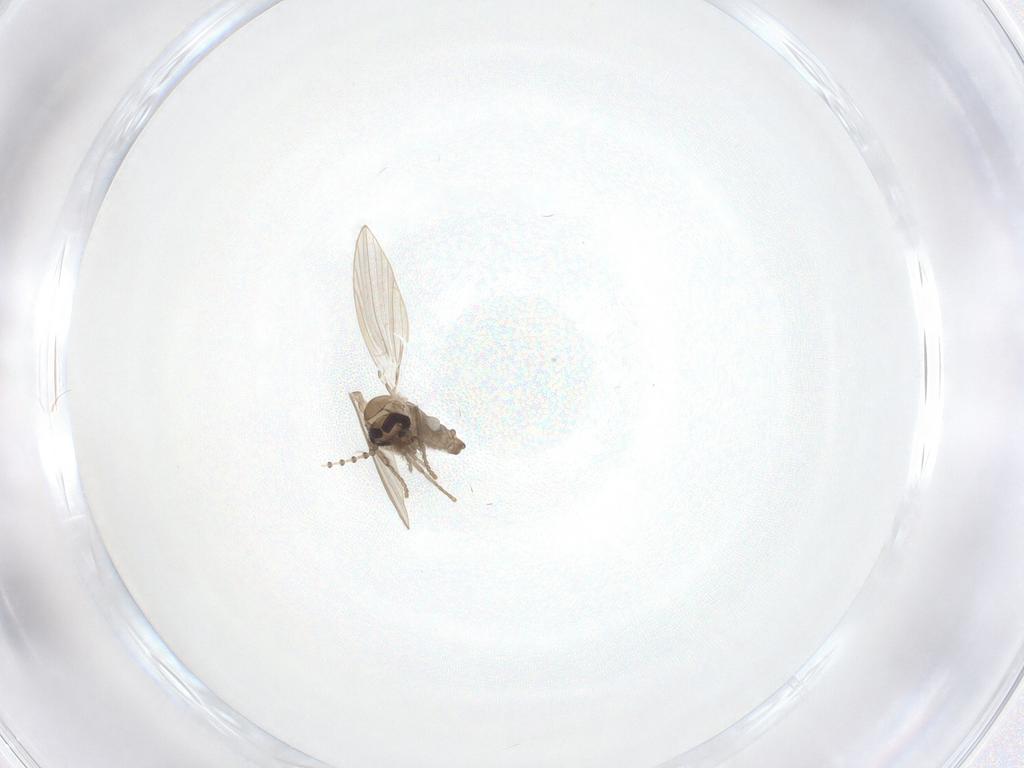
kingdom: Animalia
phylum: Arthropoda
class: Insecta
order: Diptera
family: Psychodidae
